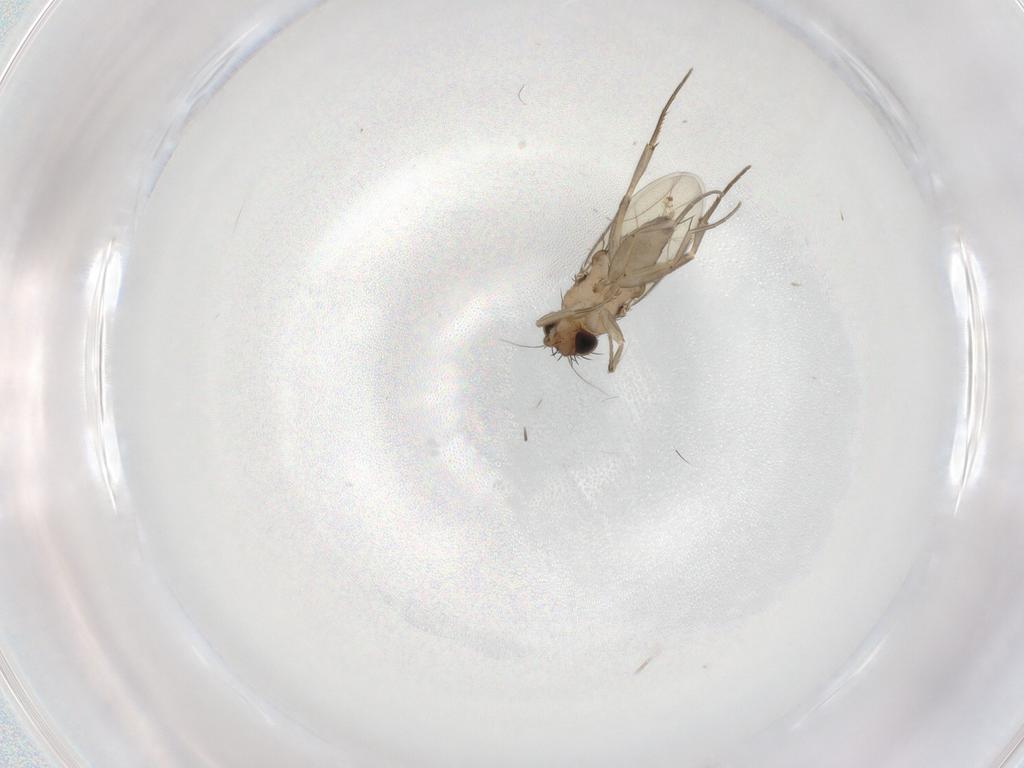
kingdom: Animalia
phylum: Arthropoda
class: Insecta
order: Diptera
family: Phoridae
